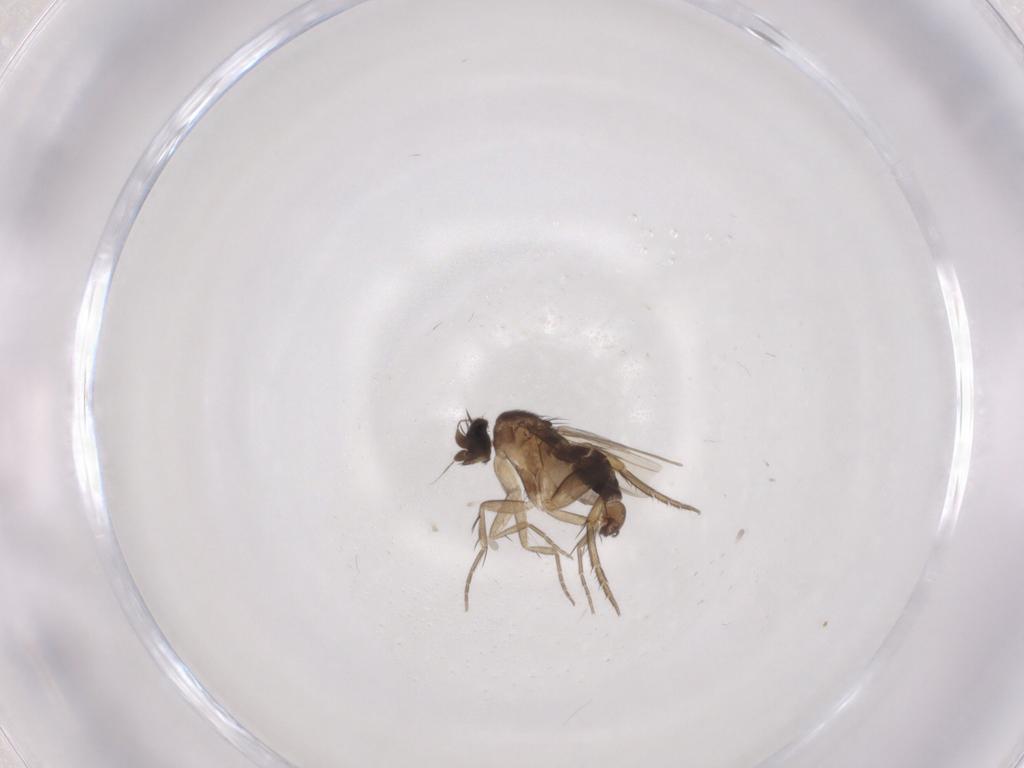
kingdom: Animalia
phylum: Arthropoda
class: Insecta
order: Diptera
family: Phoridae
